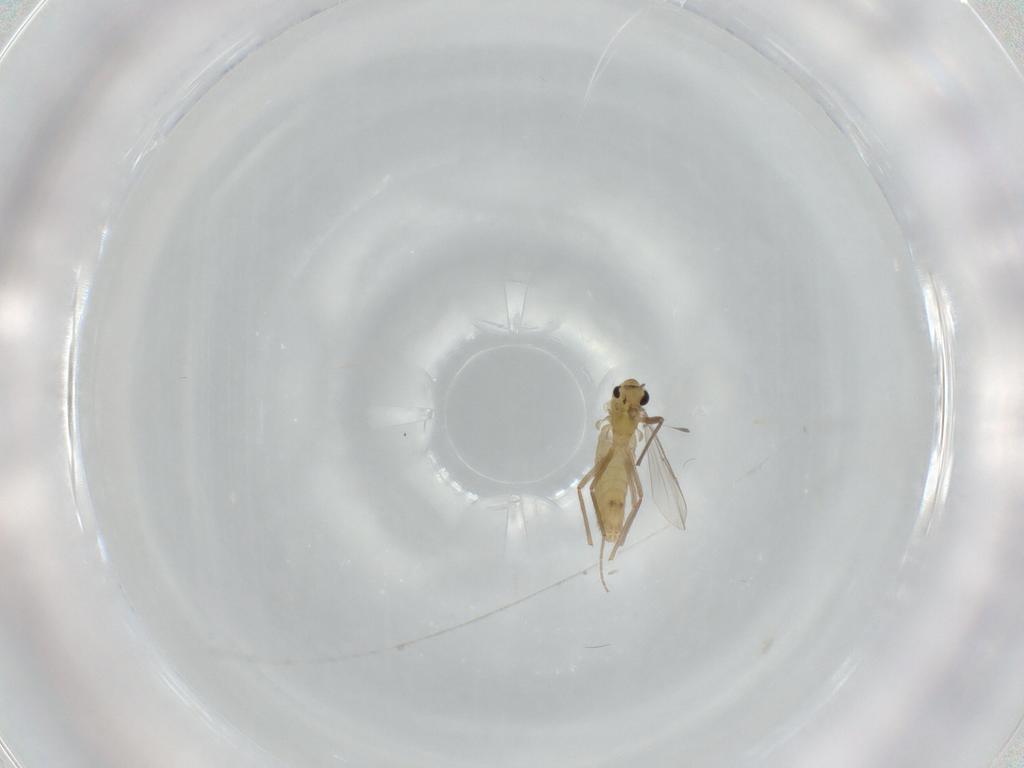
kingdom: Animalia
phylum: Arthropoda
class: Insecta
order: Diptera
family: Chironomidae
